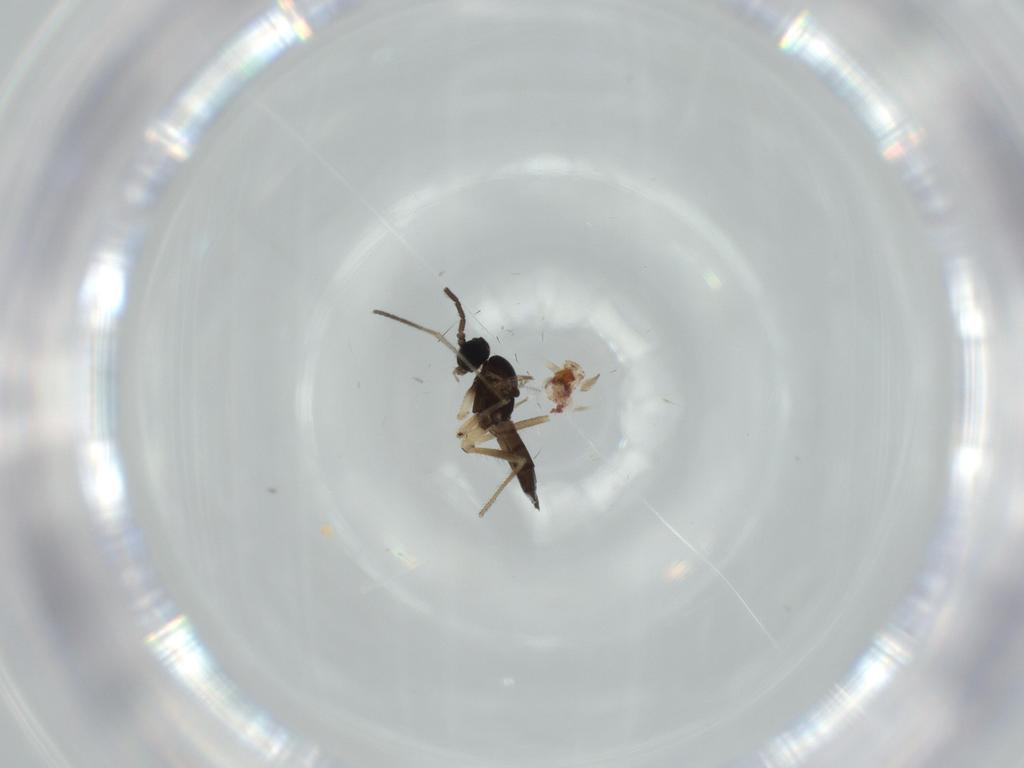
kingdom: Animalia
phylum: Arthropoda
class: Insecta
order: Diptera
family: Sciaridae
